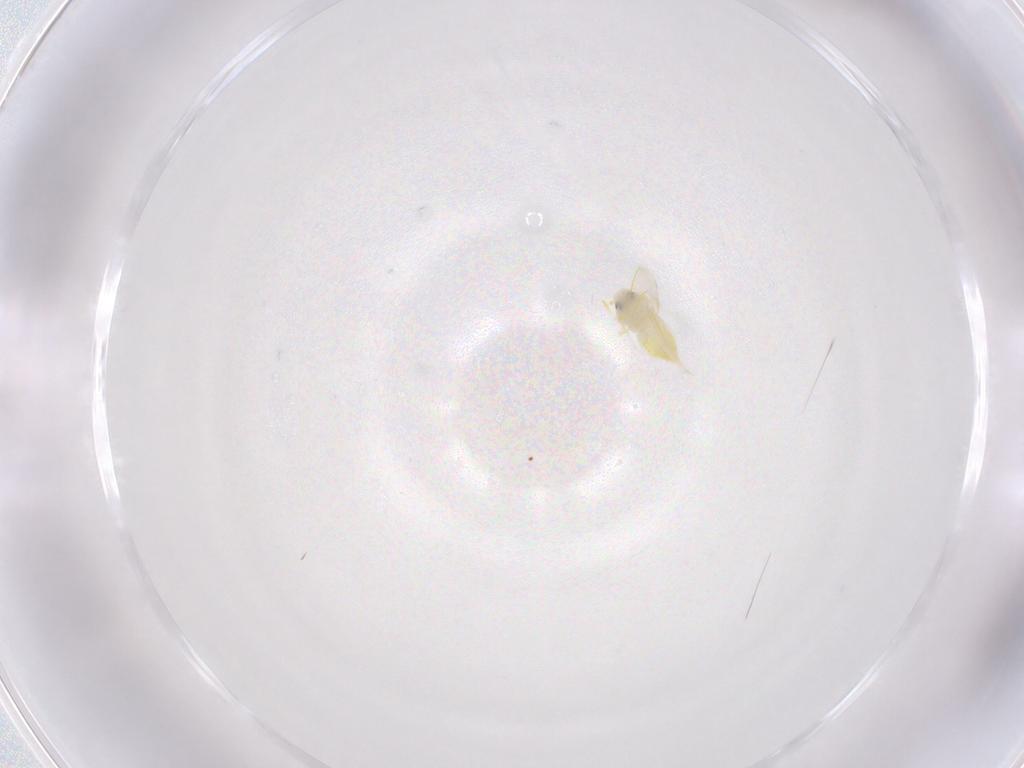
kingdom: Animalia
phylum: Arthropoda
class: Insecta
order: Hemiptera
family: Aleyrodidae
